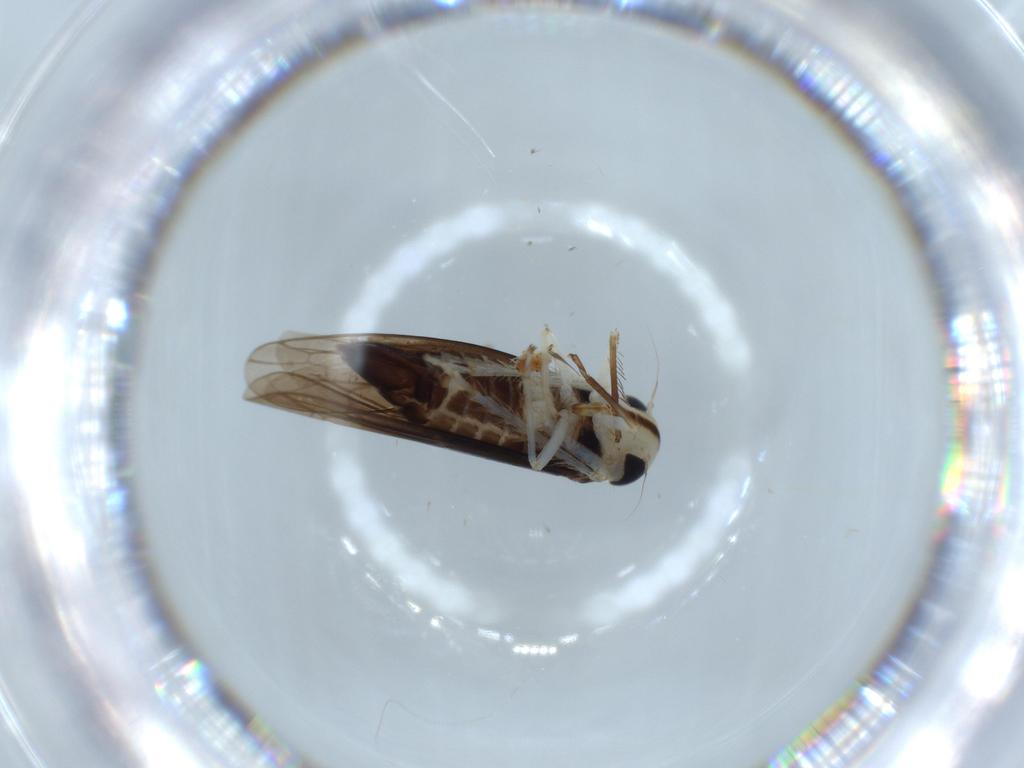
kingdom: Animalia
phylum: Arthropoda
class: Insecta
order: Hemiptera
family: Cicadellidae
